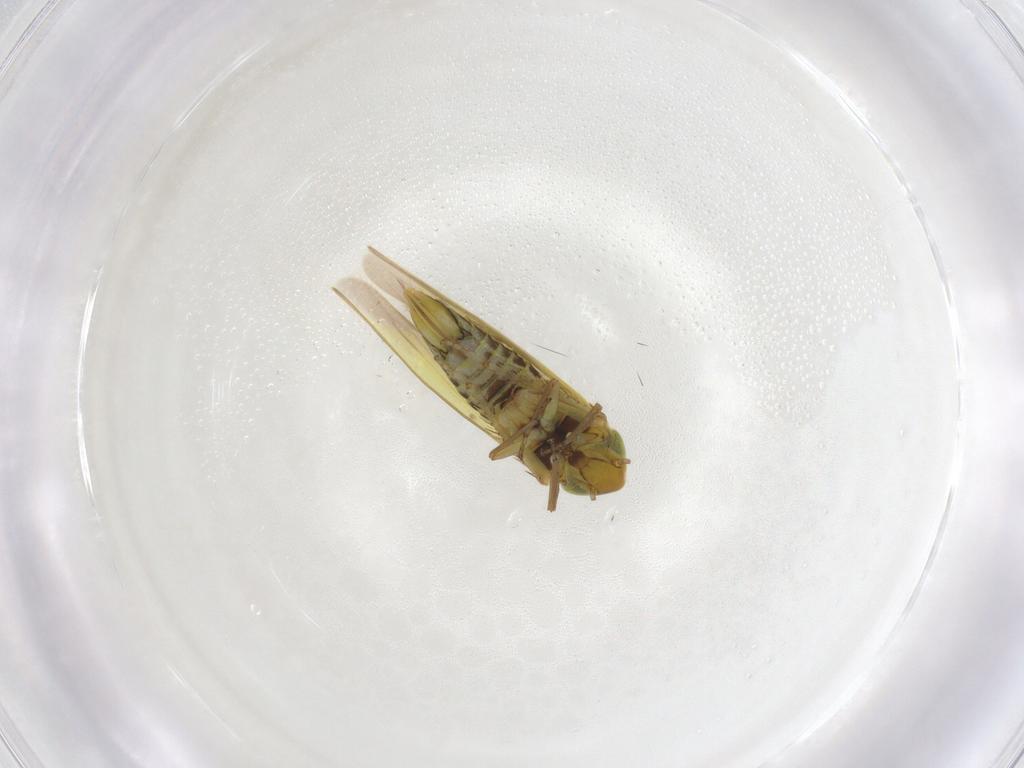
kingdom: Animalia
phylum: Arthropoda
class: Insecta
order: Hemiptera
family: Cicadellidae
